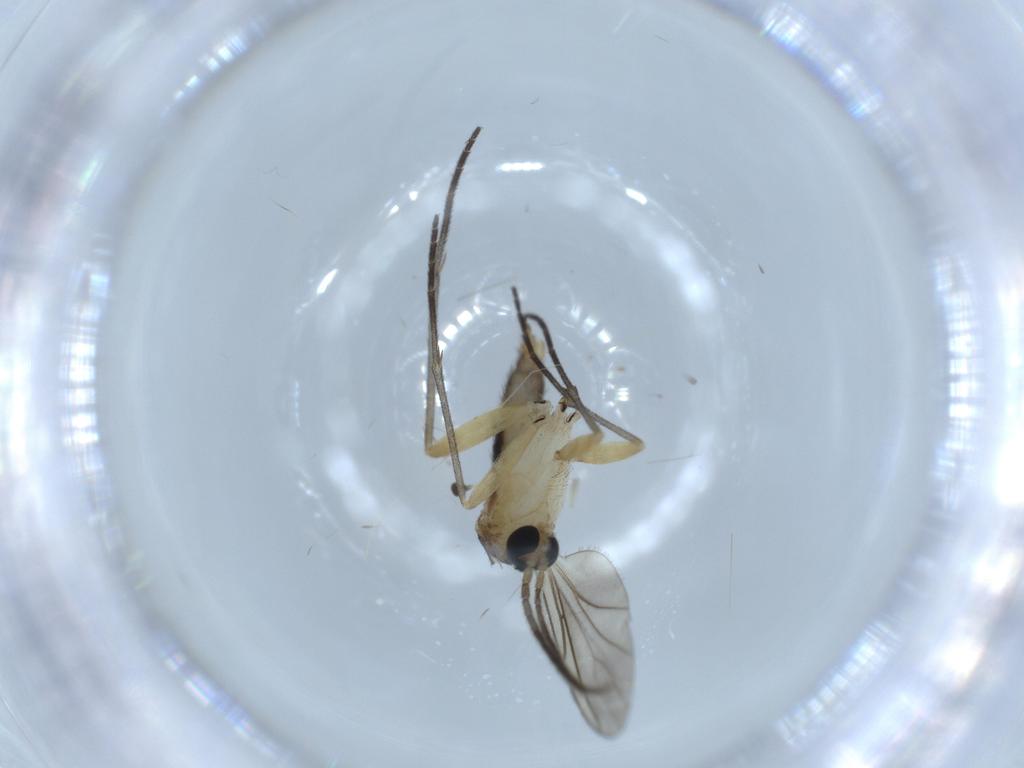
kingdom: Animalia
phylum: Arthropoda
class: Insecta
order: Diptera
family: Sciaridae
